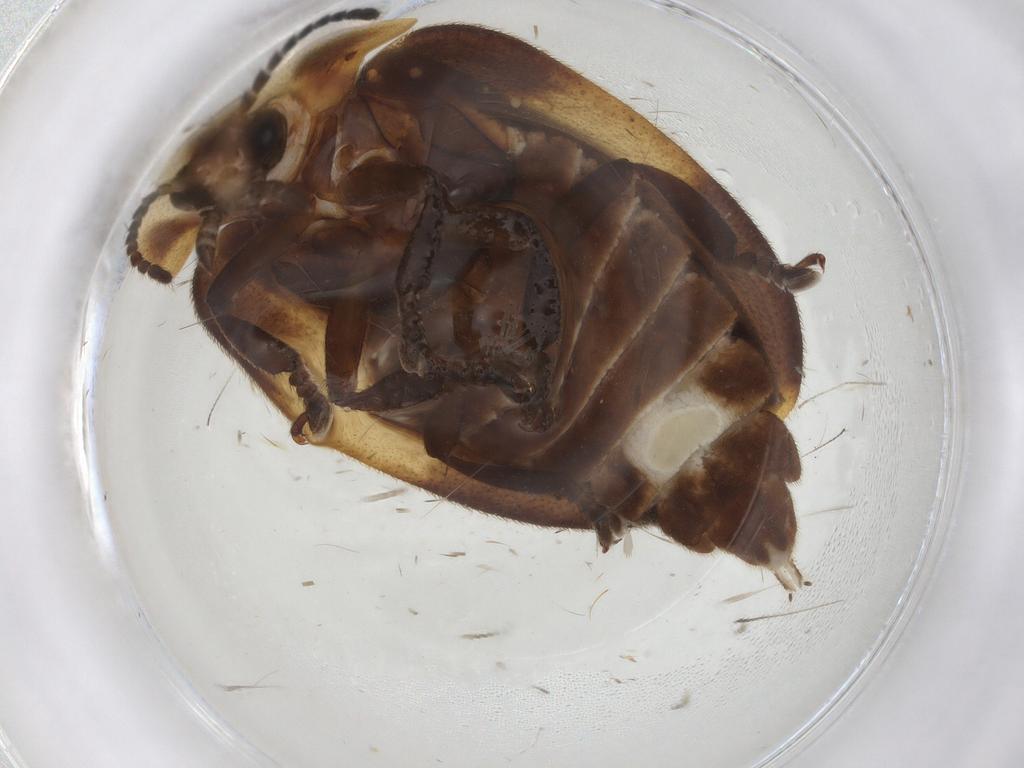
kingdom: Animalia
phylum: Arthropoda
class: Insecta
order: Coleoptera
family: Lampyridae
